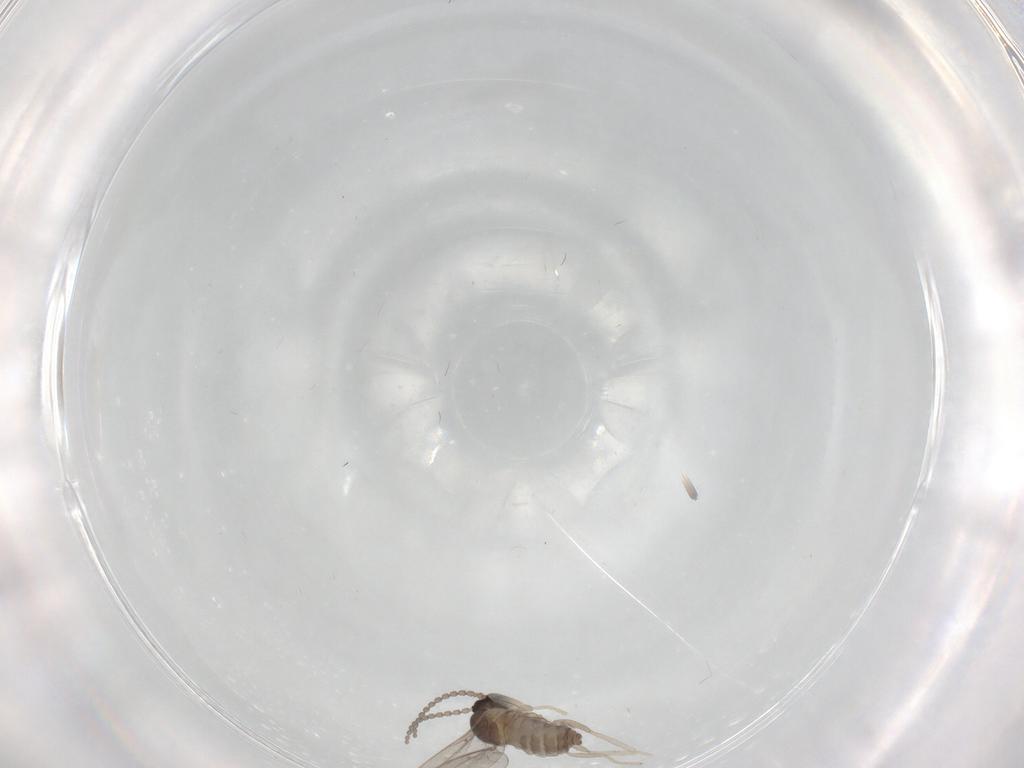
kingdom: Animalia
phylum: Arthropoda
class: Insecta
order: Diptera
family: Cecidomyiidae
